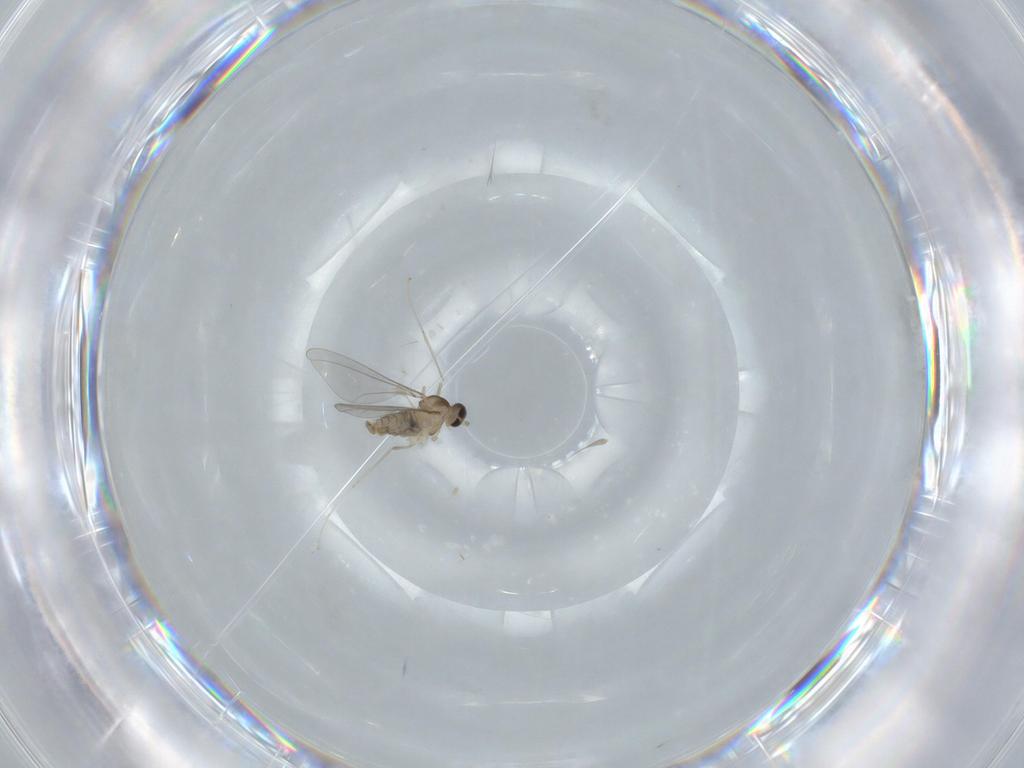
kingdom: Animalia
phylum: Arthropoda
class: Insecta
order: Diptera
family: Cecidomyiidae
